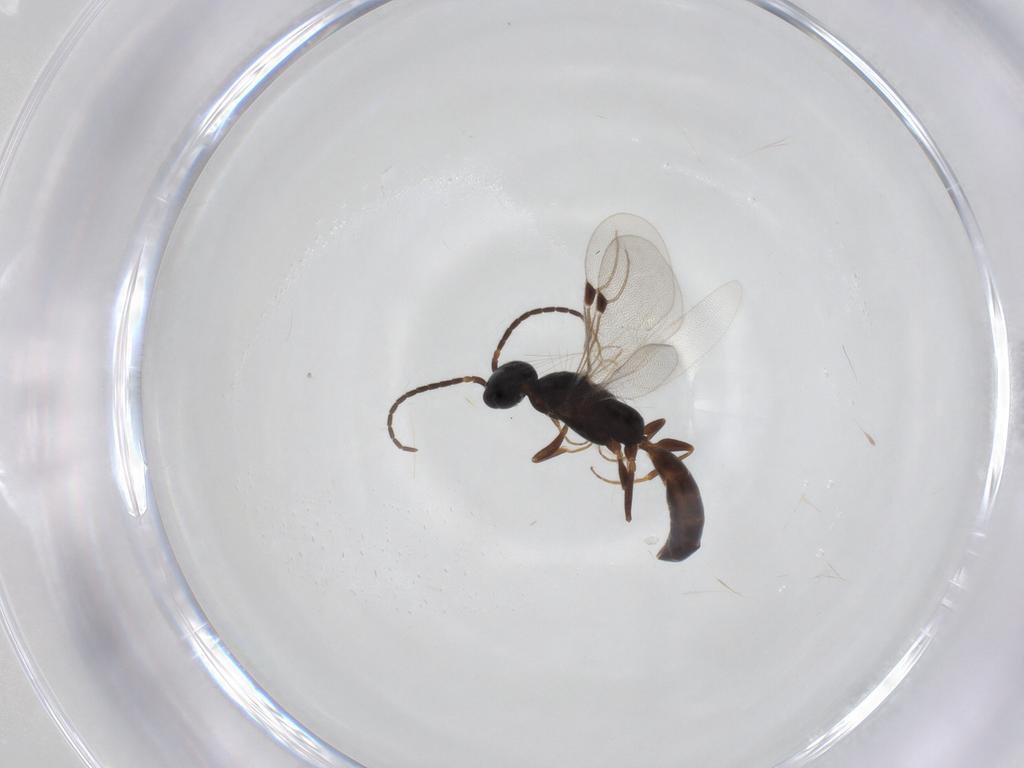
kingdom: Animalia
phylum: Arthropoda
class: Insecta
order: Hymenoptera
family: Bethylidae
